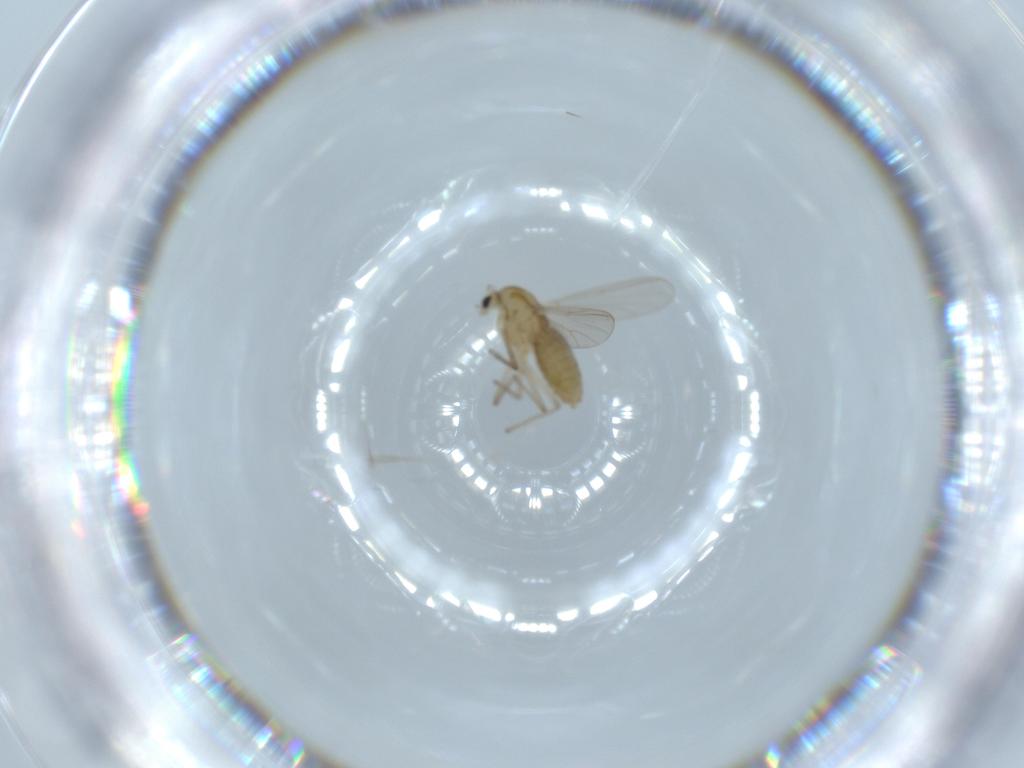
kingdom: Animalia
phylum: Arthropoda
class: Insecta
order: Diptera
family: Chironomidae
